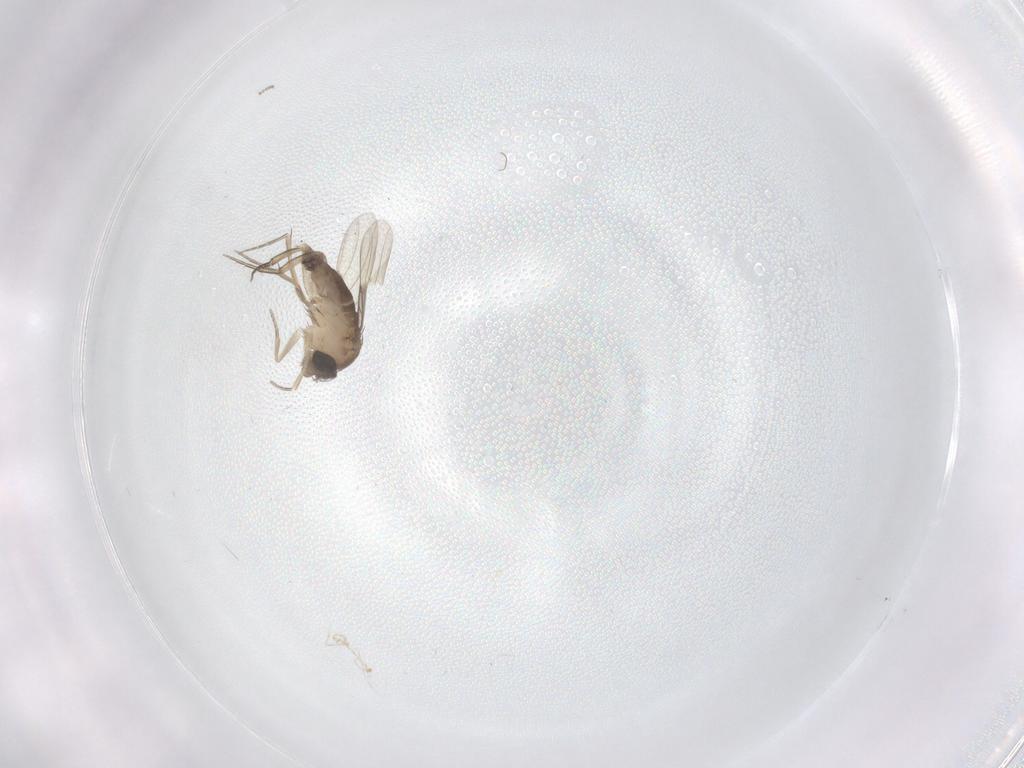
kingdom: Animalia
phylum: Arthropoda
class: Insecta
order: Diptera
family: Phoridae
